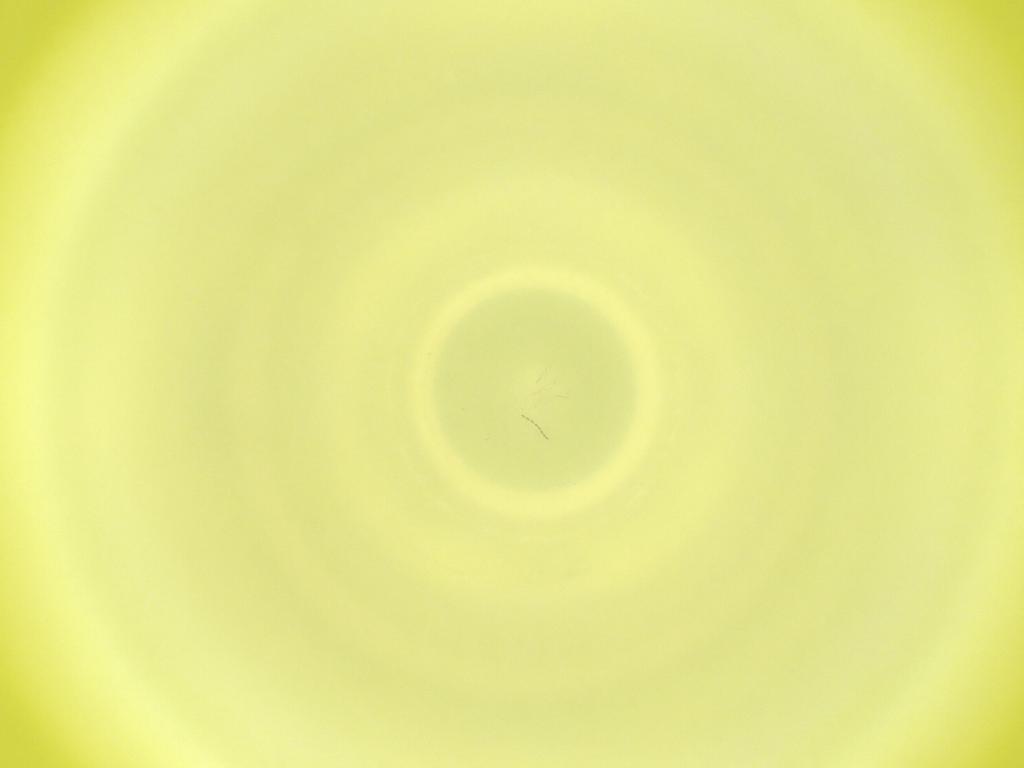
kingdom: Animalia
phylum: Arthropoda
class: Insecta
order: Diptera
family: Cecidomyiidae
